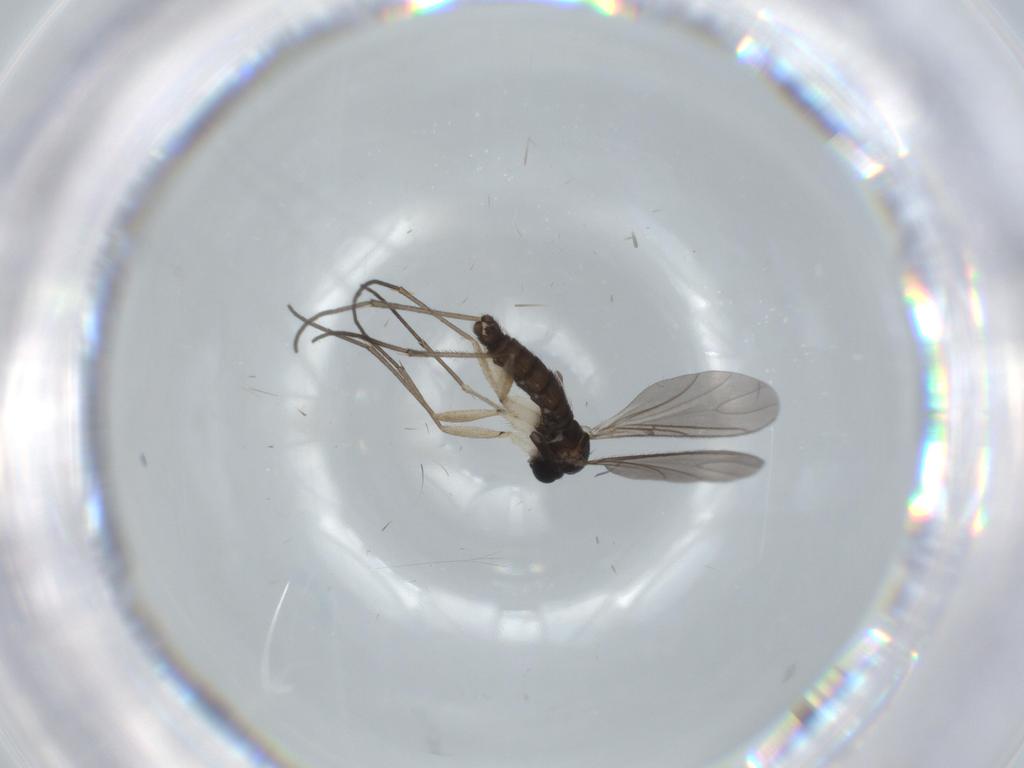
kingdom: Animalia
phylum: Arthropoda
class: Insecta
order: Diptera
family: Sciaridae
